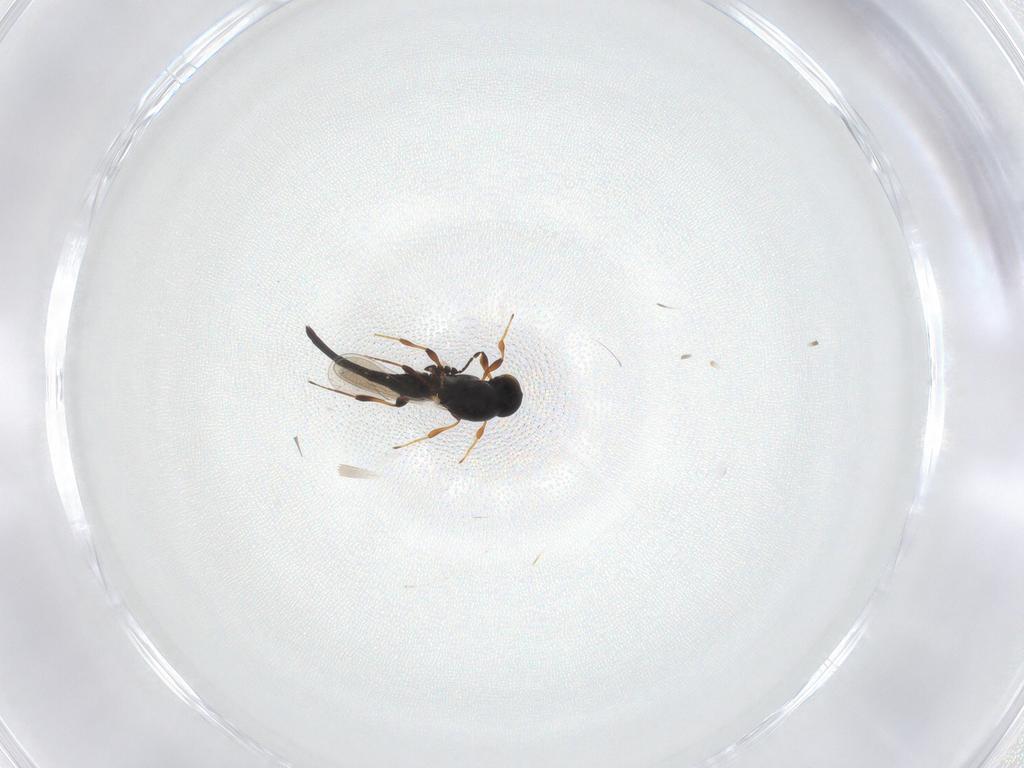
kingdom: Animalia
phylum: Arthropoda
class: Insecta
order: Hymenoptera
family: Platygastridae
